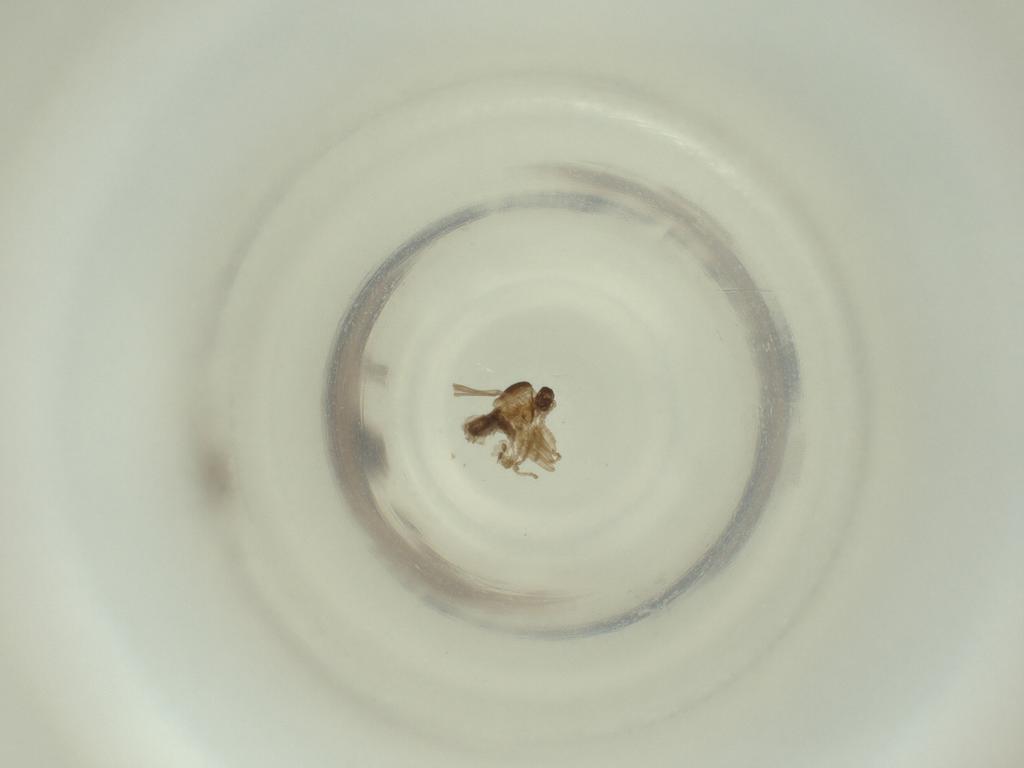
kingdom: Animalia
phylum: Arthropoda
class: Insecta
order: Diptera
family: Cecidomyiidae
